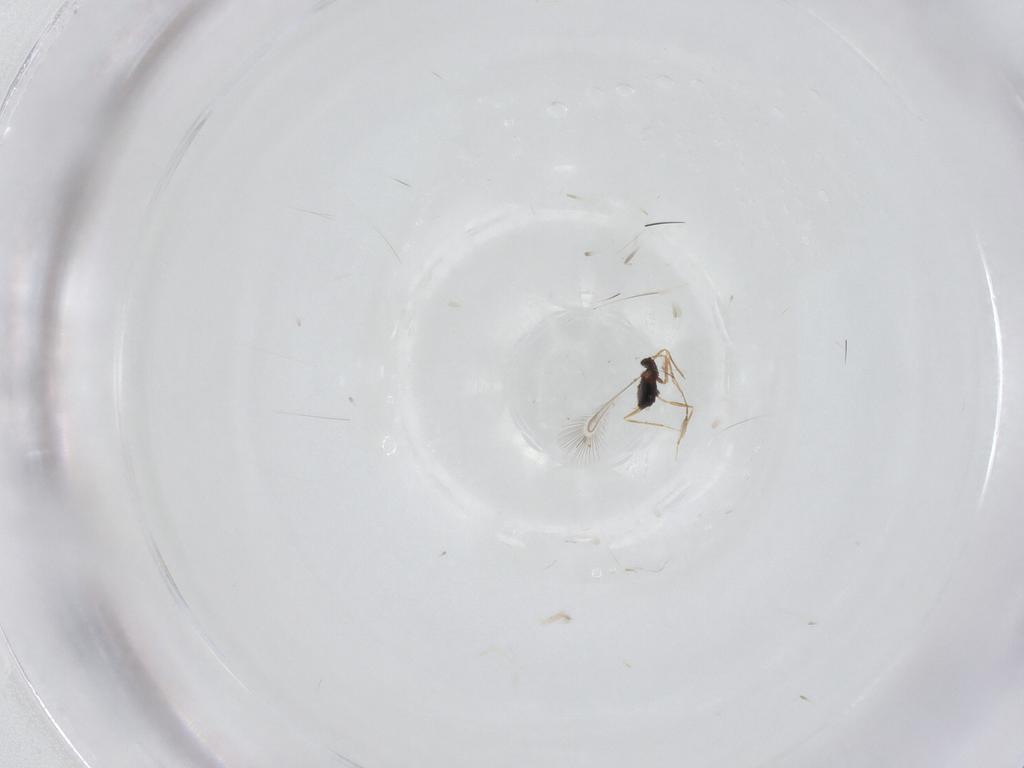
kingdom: Animalia
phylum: Arthropoda
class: Insecta
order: Hymenoptera
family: Mymaridae
